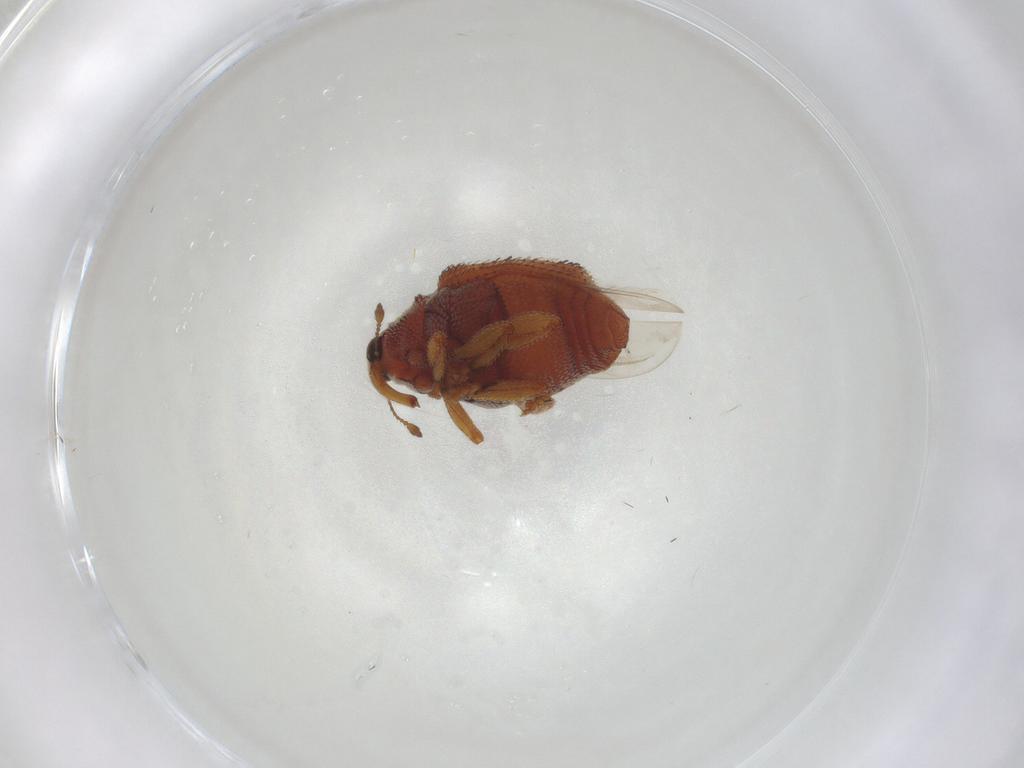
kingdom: Animalia
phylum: Arthropoda
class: Insecta
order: Coleoptera
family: Curculionidae
